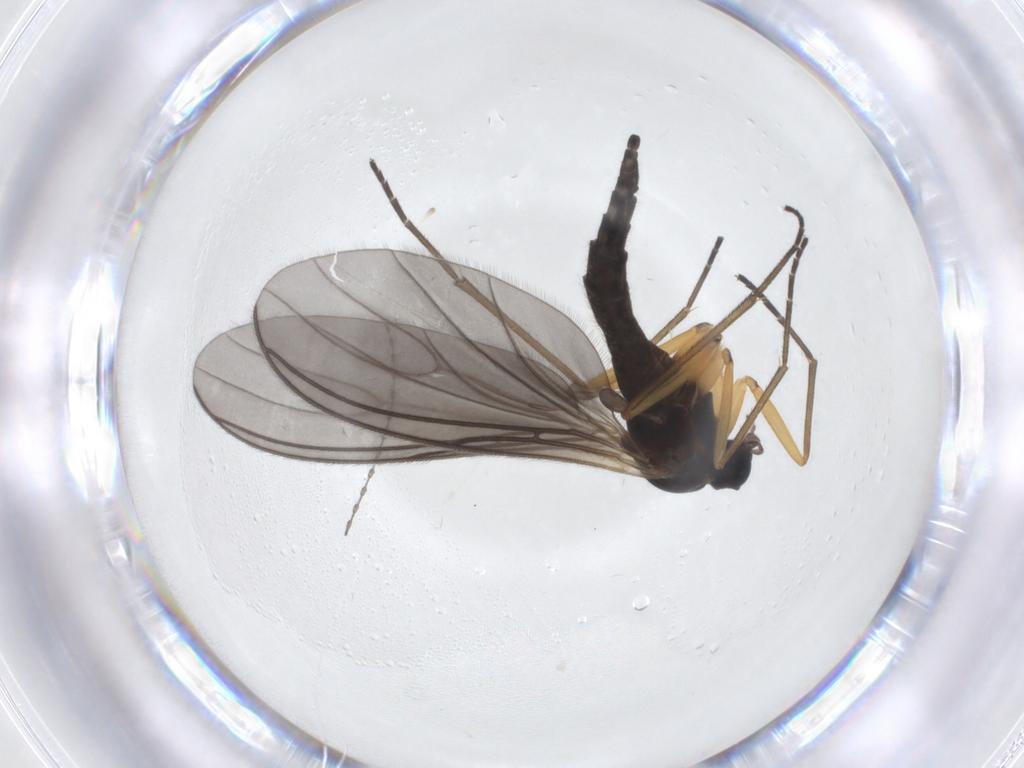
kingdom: Animalia
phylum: Arthropoda
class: Insecta
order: Diptera
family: Sciaridae
